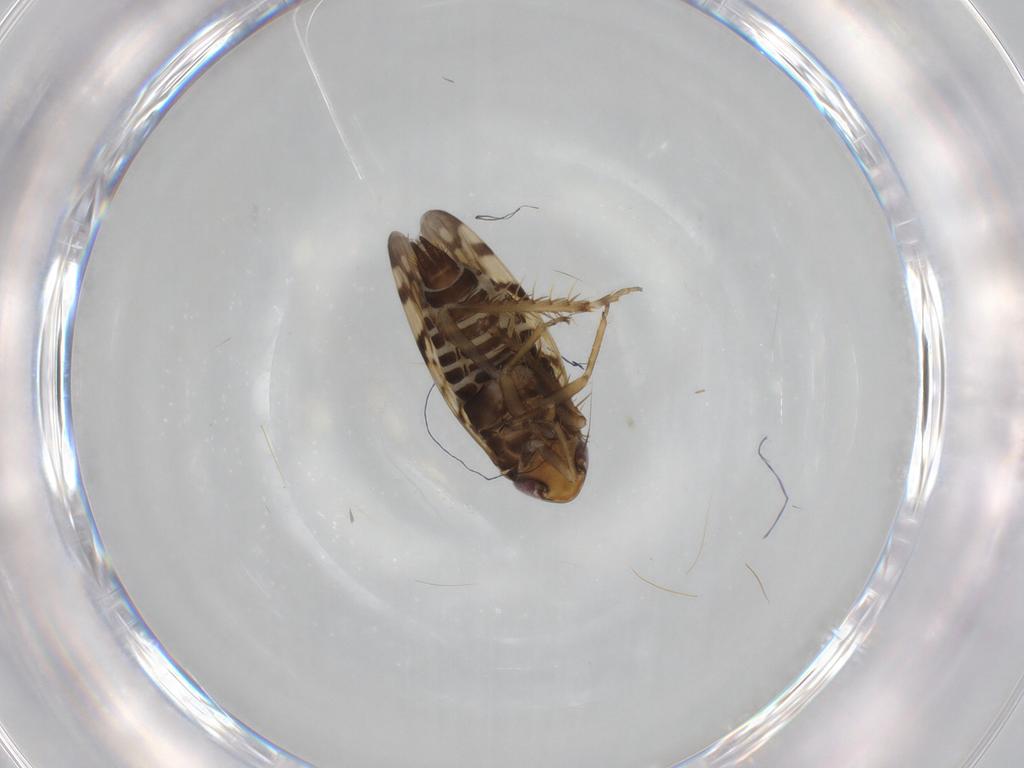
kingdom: Animalia
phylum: Arthropoda
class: Insecta
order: Hemiptera
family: Cicadellidae
